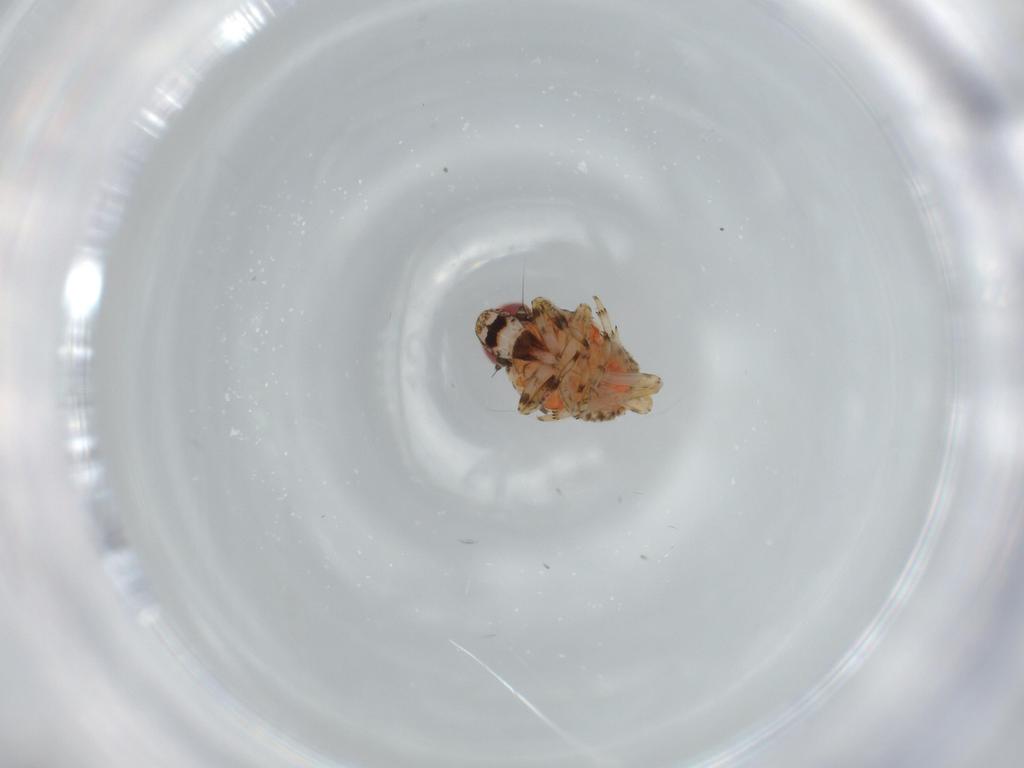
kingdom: Animalia
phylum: Arthropoda
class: Insecta
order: Hemiptera
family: Issidae
